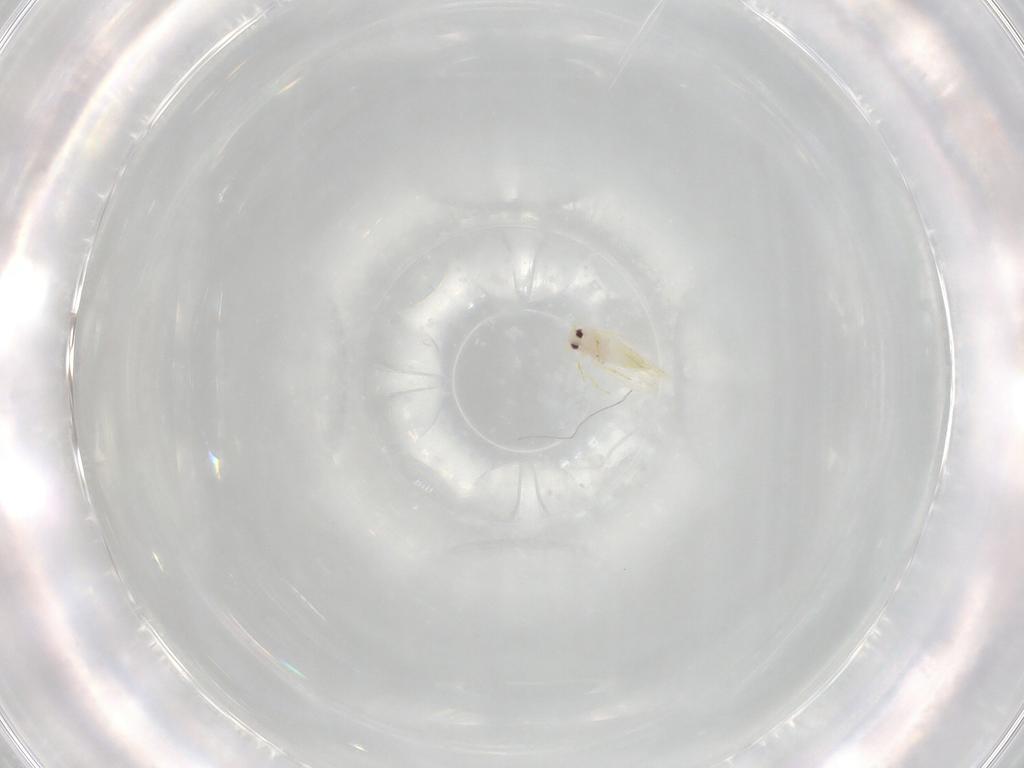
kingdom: Animalia
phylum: Arthropoda
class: Insecta
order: Hemiptera
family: Aleyrodidae
